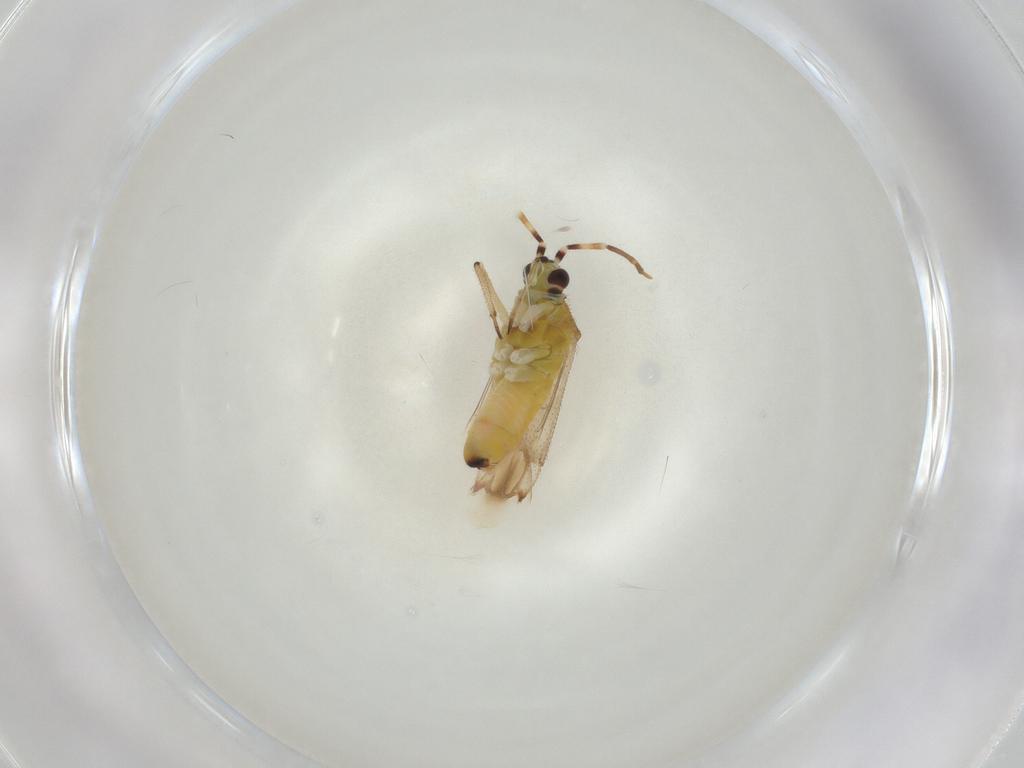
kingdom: Animalia
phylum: Arthropoda
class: Insecta
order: Hemiptera
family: Miridae
